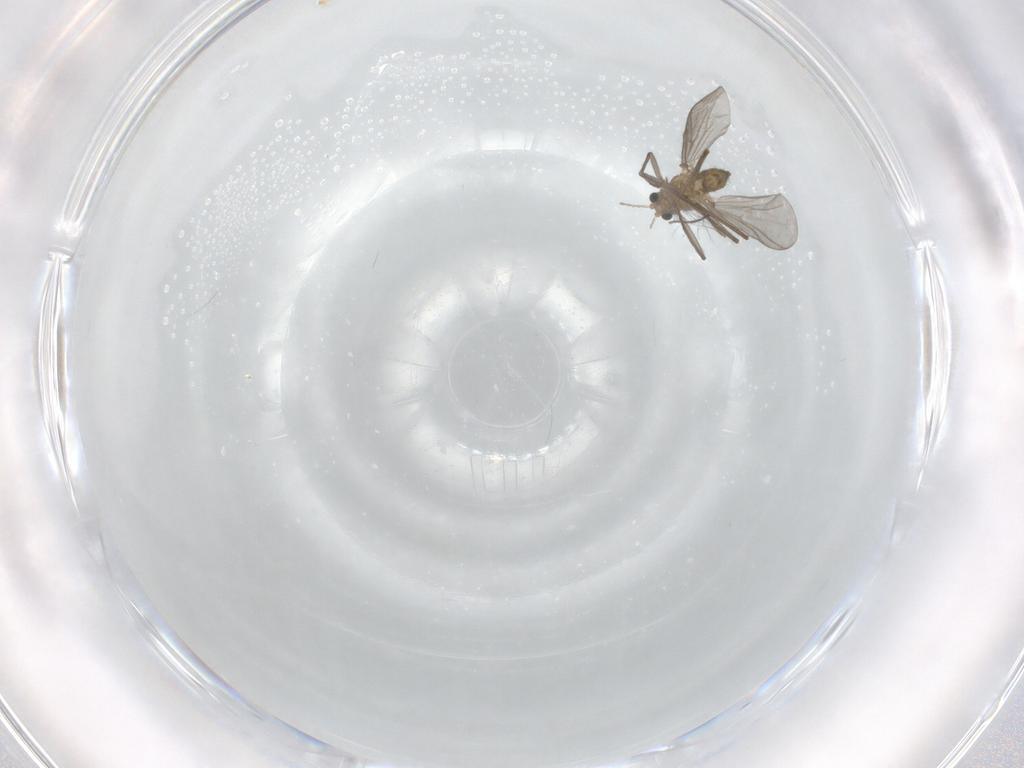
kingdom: Animalia
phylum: Arthropoda
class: Insecta
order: Diptera
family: Chironomidae
